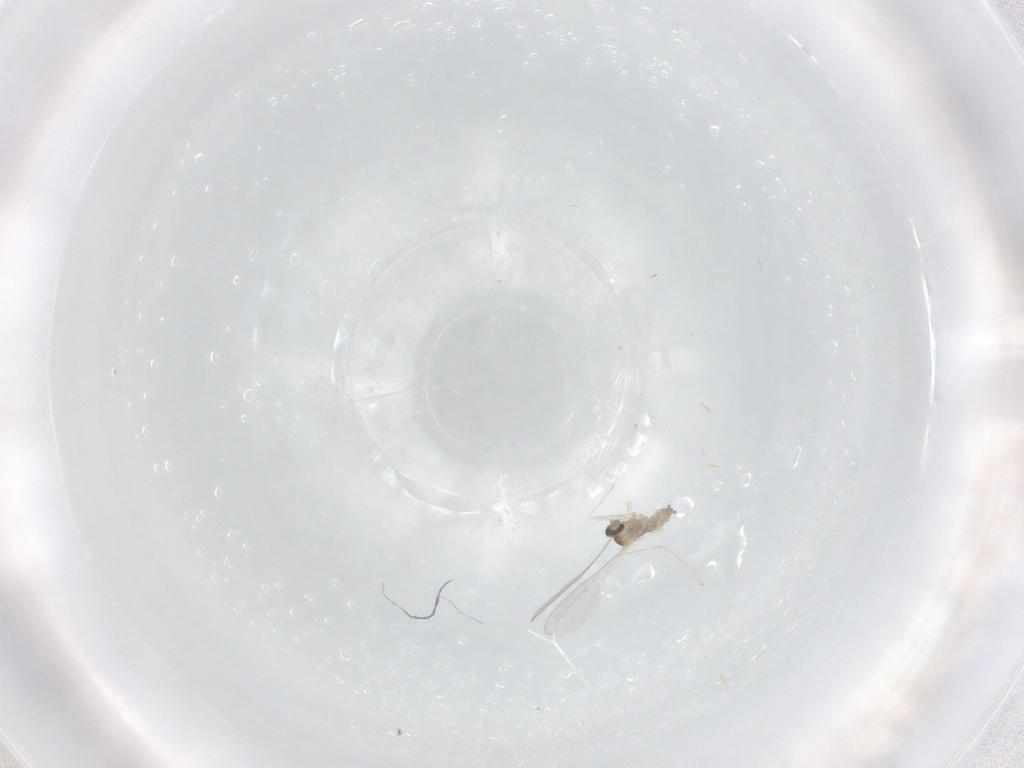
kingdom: Animalia
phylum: Arthropoda
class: Insecta
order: Diptera
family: Cecidomyiidae
